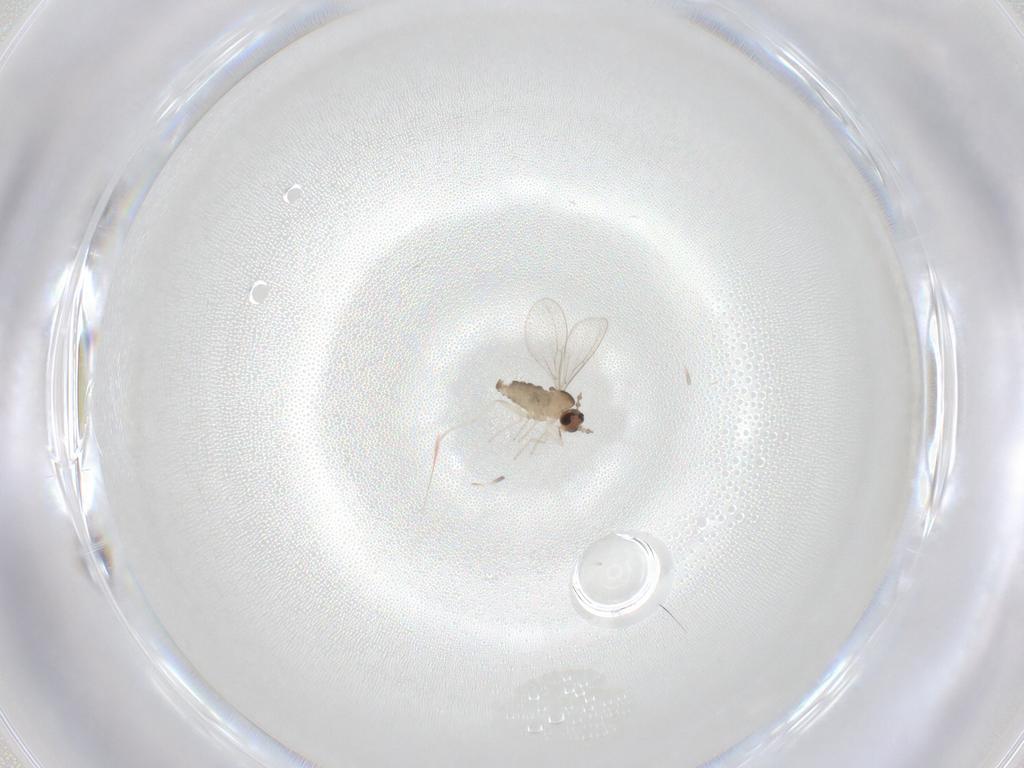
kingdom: Animalia
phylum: Arthropoda
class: Insecta
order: Diptera
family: Cecidomyiidae
